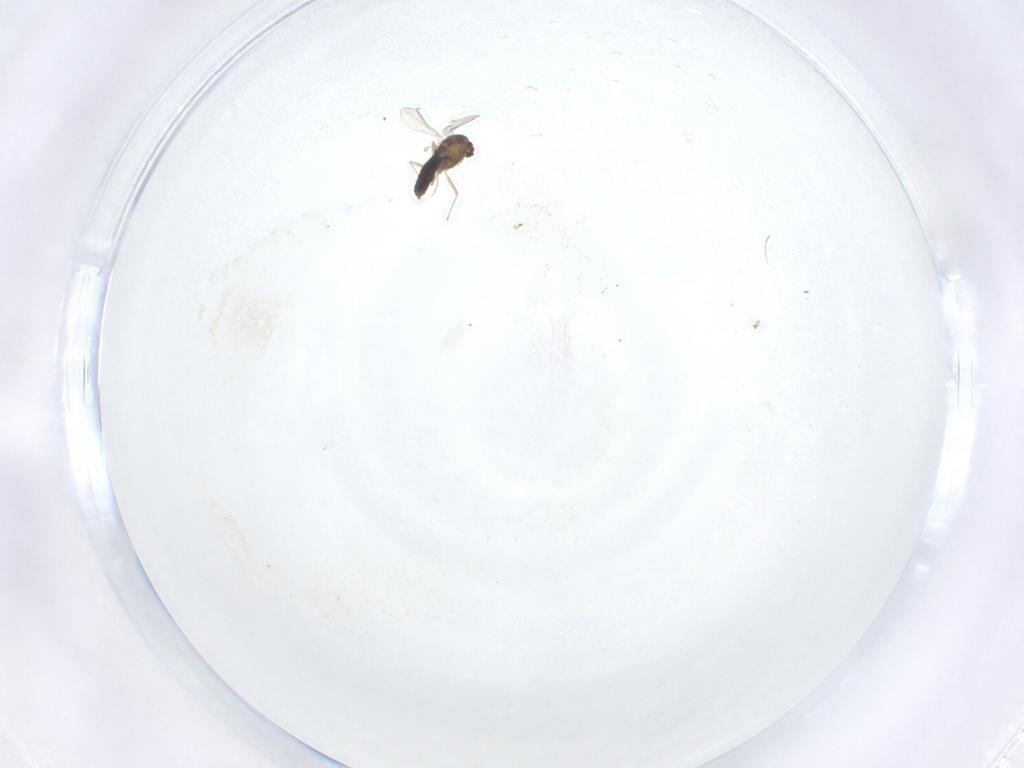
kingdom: Animalia
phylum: Arthropoda
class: Insecta
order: Diptera
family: Chironomidae
